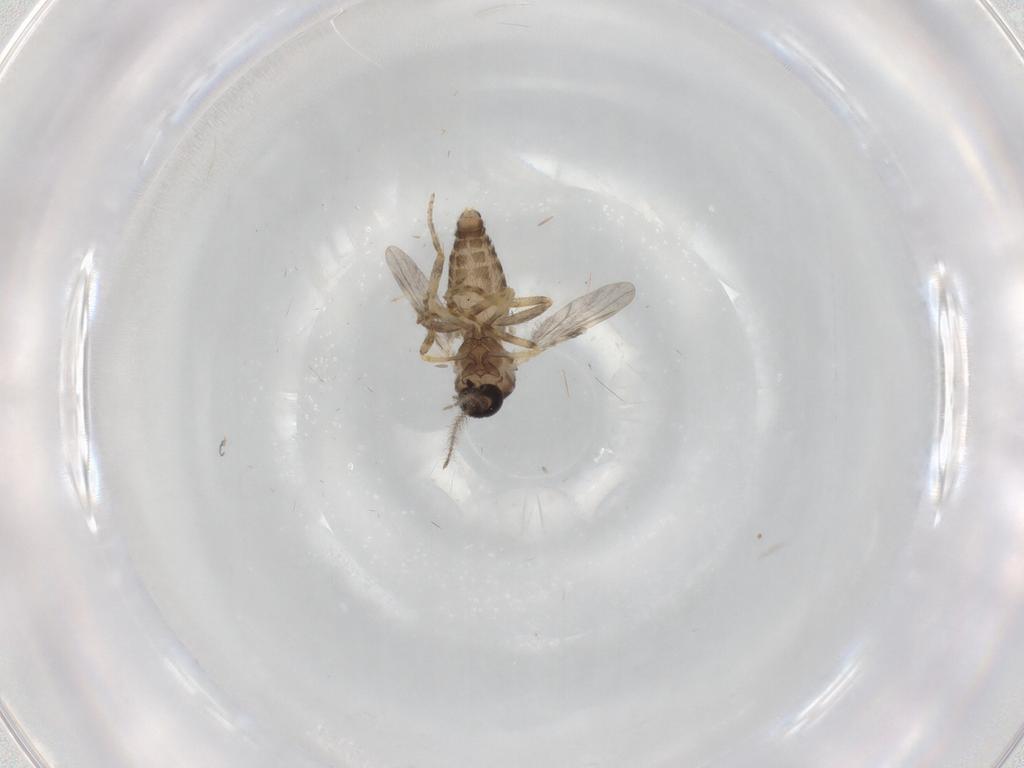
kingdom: Animalia
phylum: Arthropoda
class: Insecta
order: Diptera
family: Ceratopogonidae
